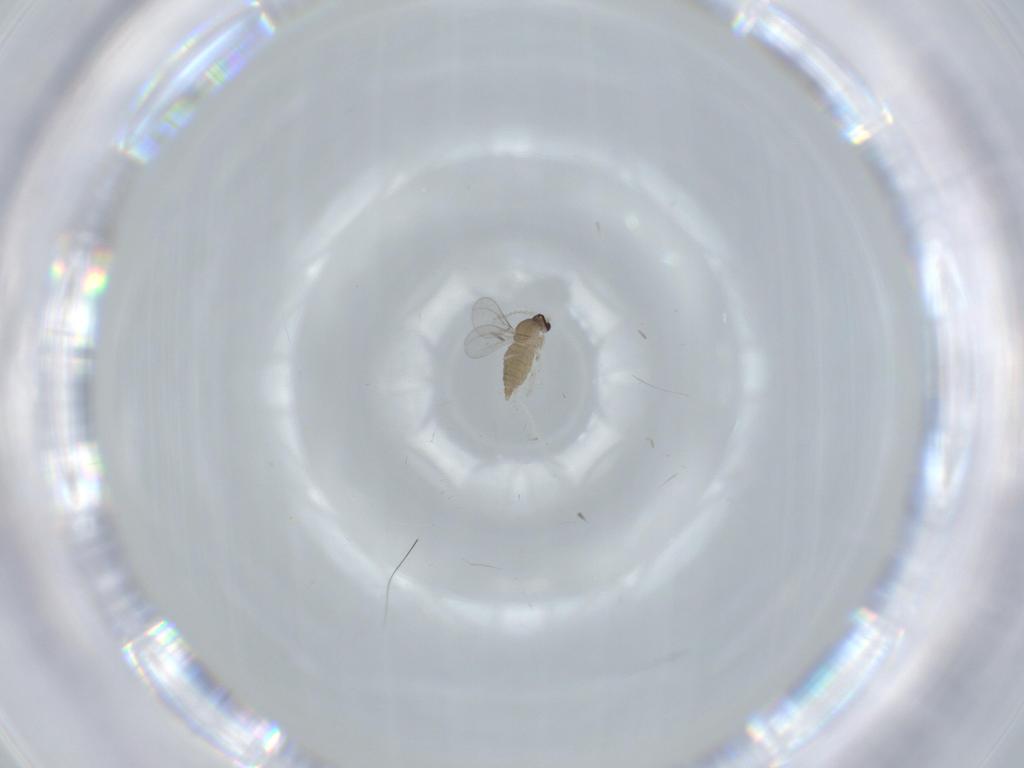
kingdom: Animalia
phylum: Arthropoda
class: Insecta
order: Diptera
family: Cecidomyiidae
